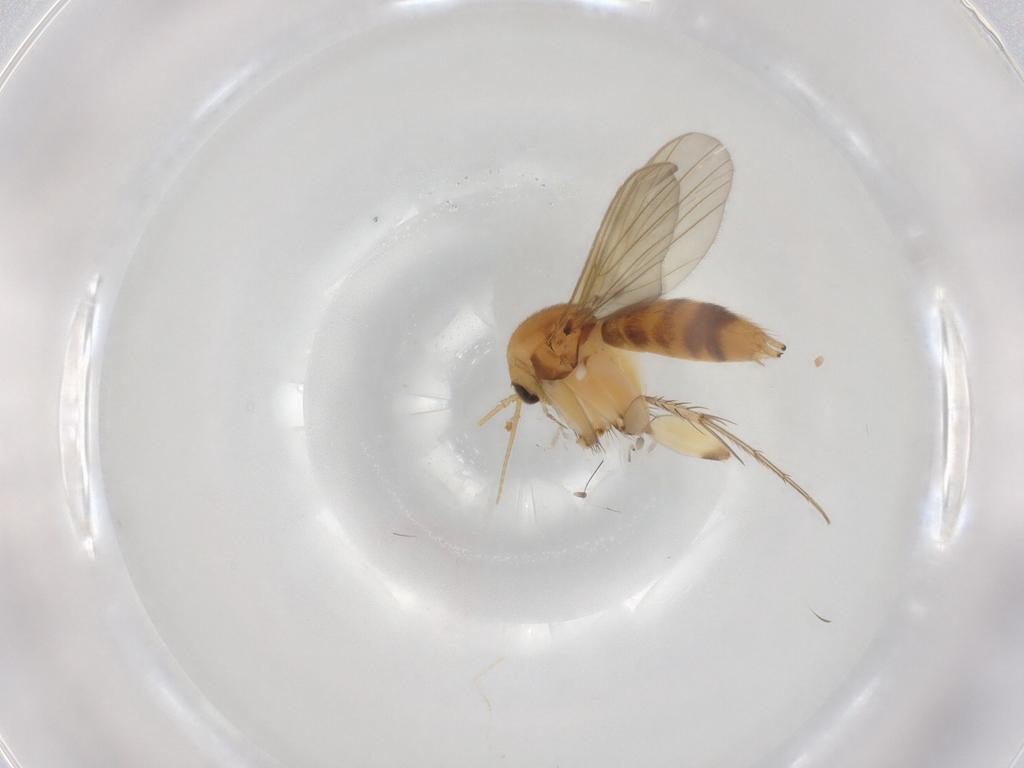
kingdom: Animalia
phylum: Arthropoda
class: Insecta
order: Diptera
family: Mycetophilidae
